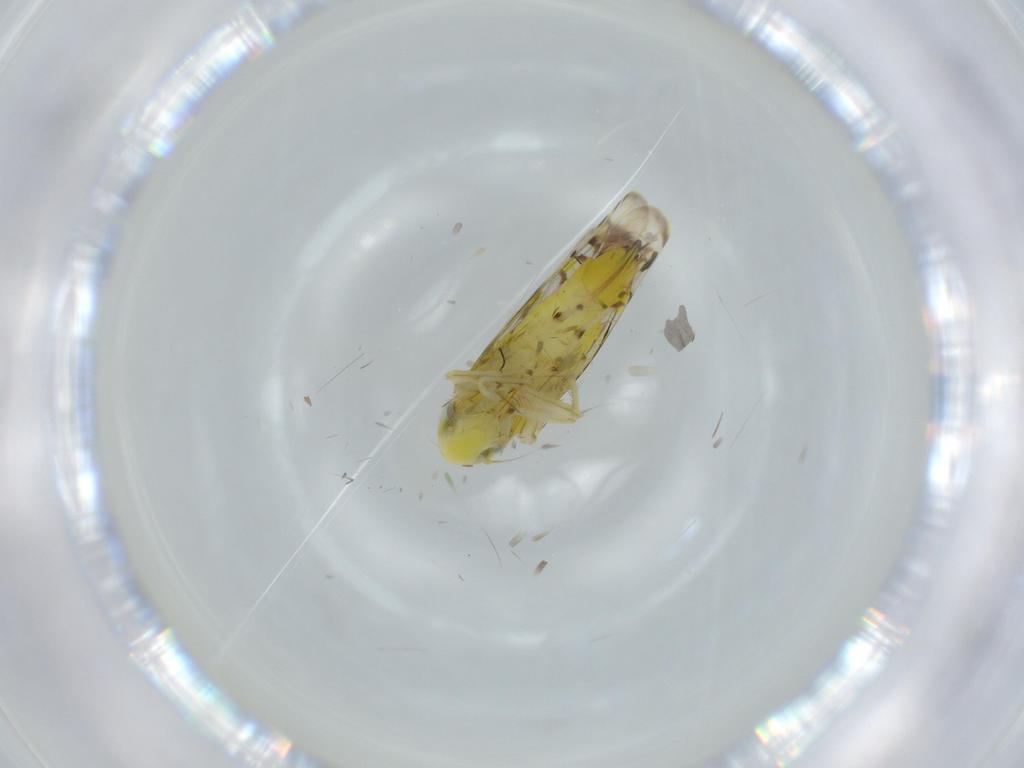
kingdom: Animalia
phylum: Arthropoda
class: Insecta
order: Hemiptera
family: Cicadellidae
